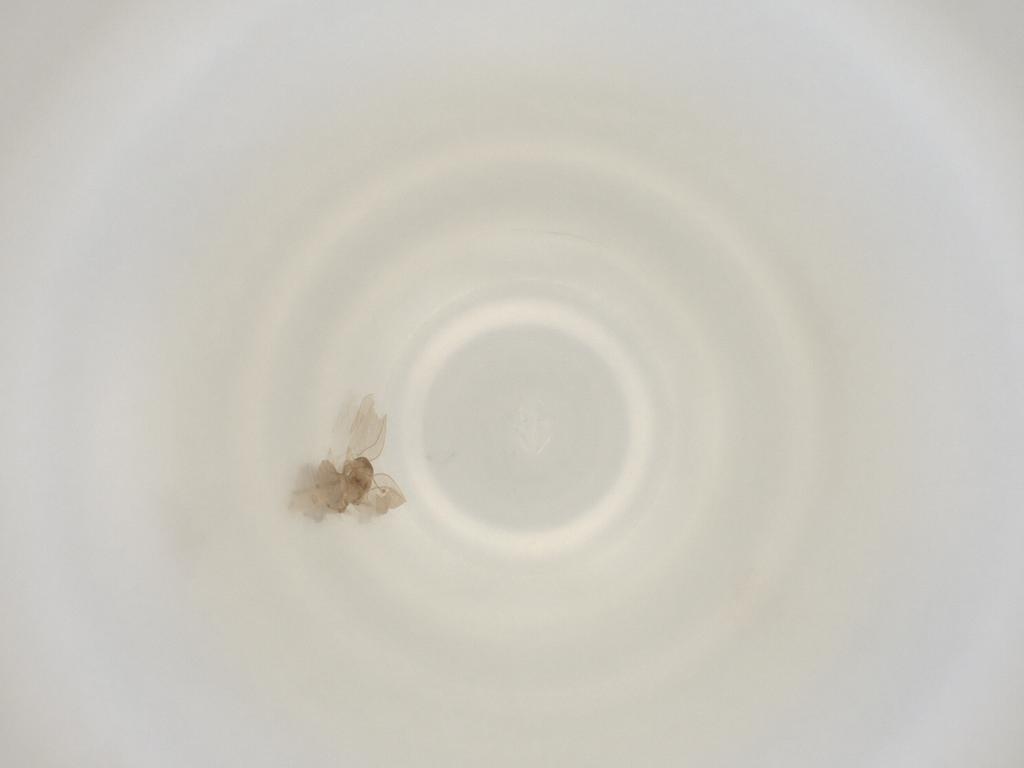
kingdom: Animalia
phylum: Arthropoda
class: Insecta
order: Diptera
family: Cecidomyiidae
